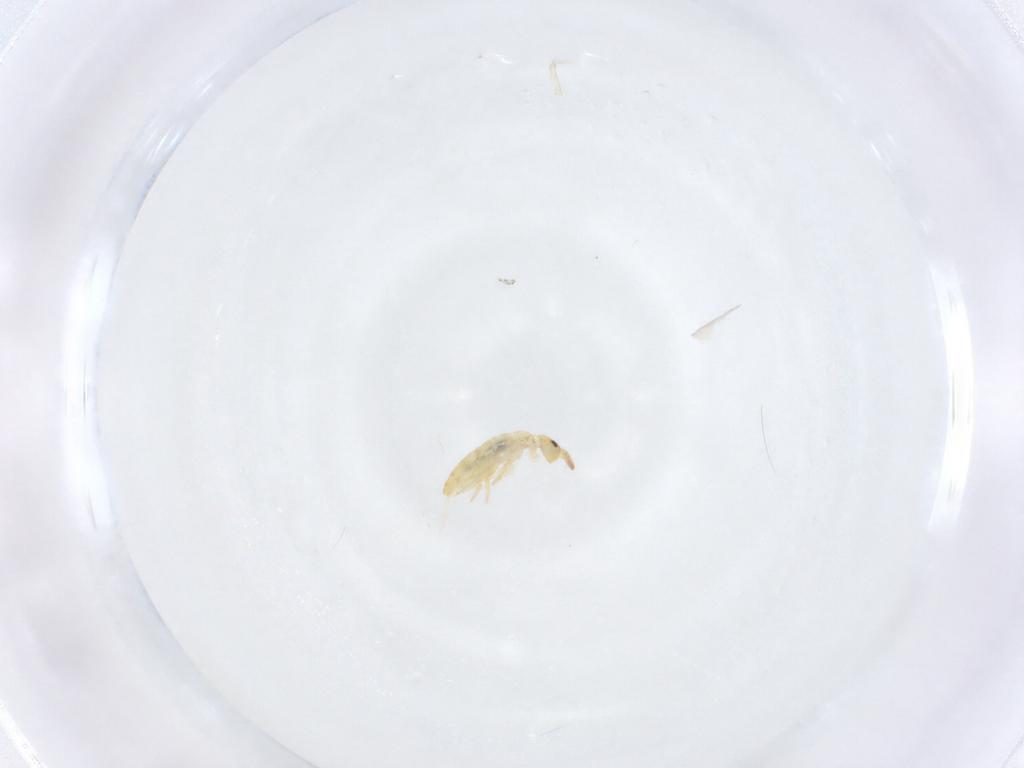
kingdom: Animalia
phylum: Arthropoda
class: Collembola
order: Entomobryomorpha
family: Entomobryidae
